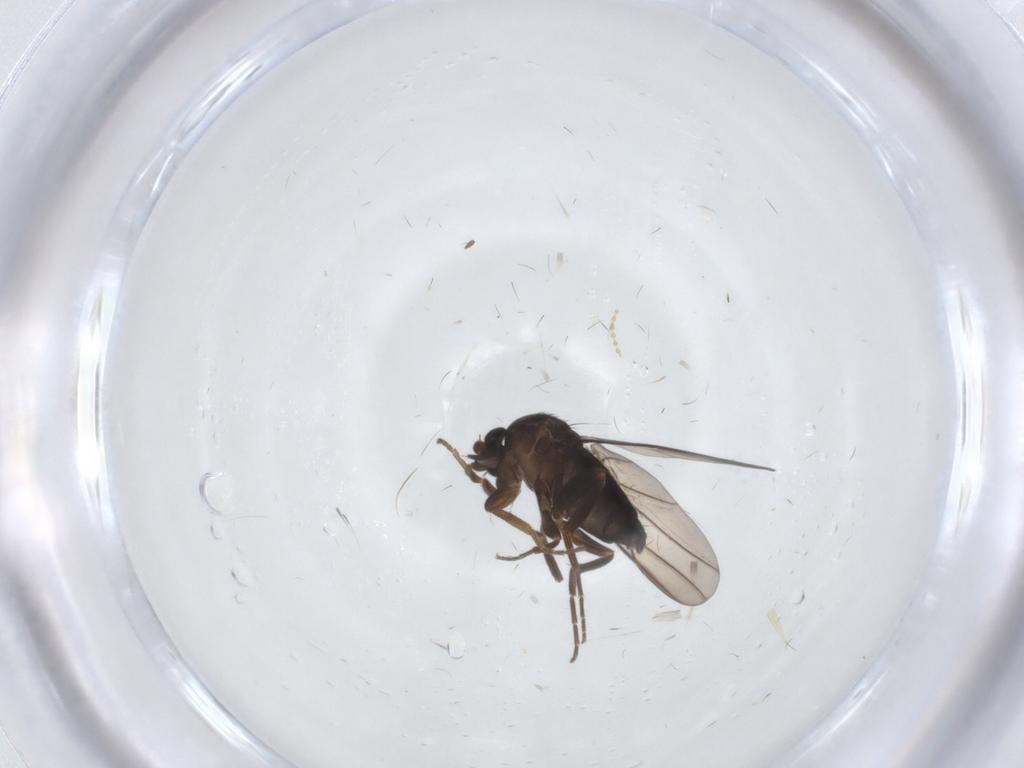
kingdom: Animalia
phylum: Arthropoda
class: Insecta
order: Diptera
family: Cecidomyiidae
